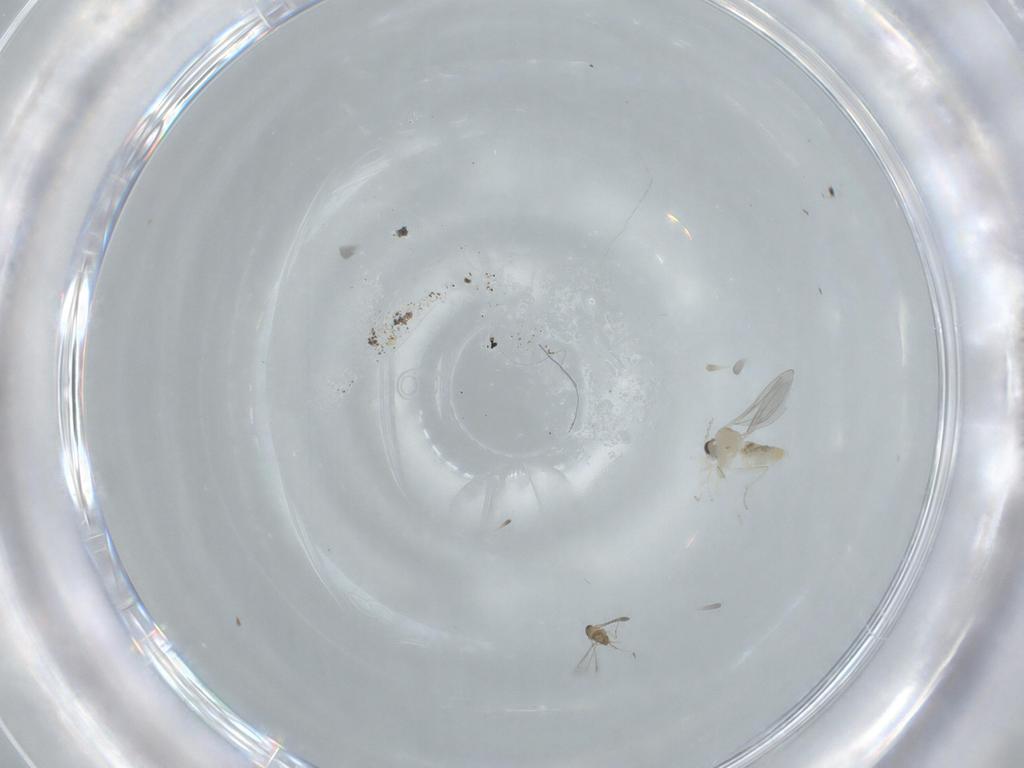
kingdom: Animalia
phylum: Arthropoda
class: Insecta
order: Diptera
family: Cecidomyiidae
